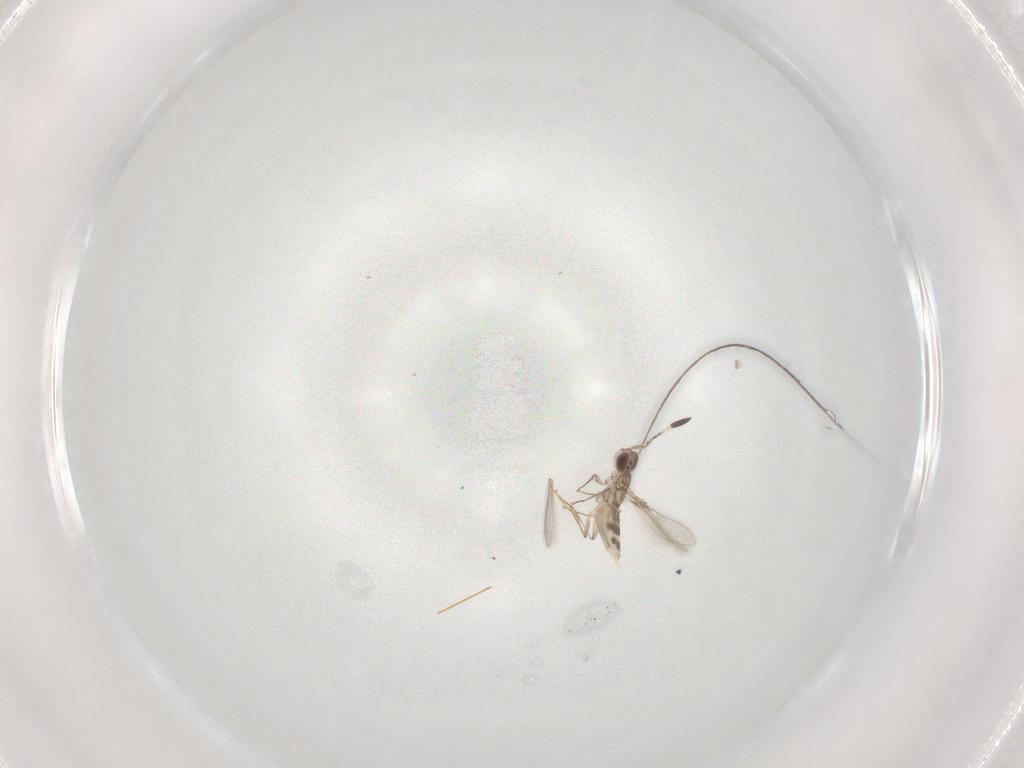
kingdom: Animalia
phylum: Arthropoda
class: Insecta
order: Hymenoptera
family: Mymaridae
